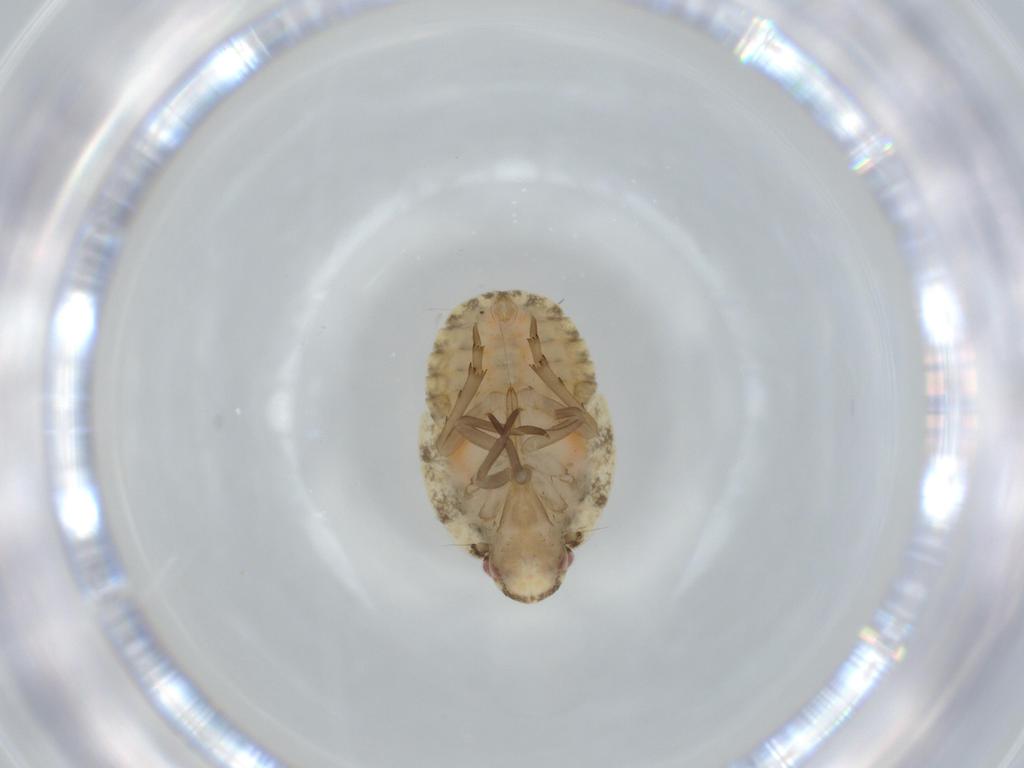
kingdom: Animalia
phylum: Arthropoda
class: Insecta
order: Hemiptera
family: Flatidae
